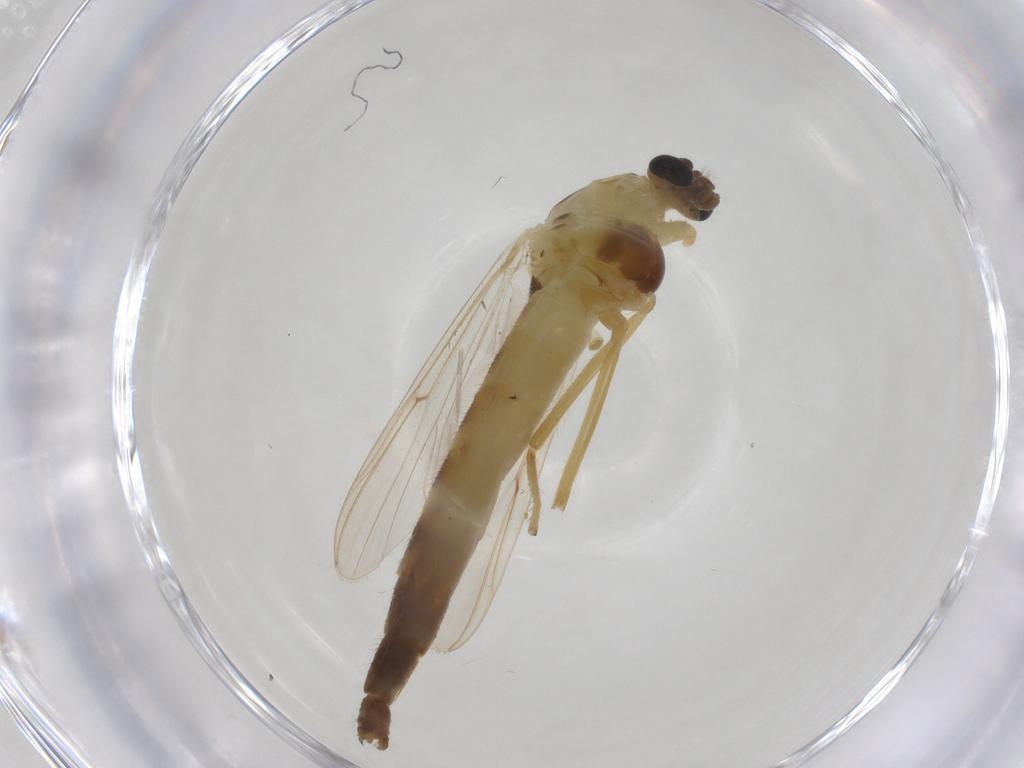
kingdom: Animalia
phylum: Arthropoda
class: Insecta
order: Diptera
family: Chironomidae
